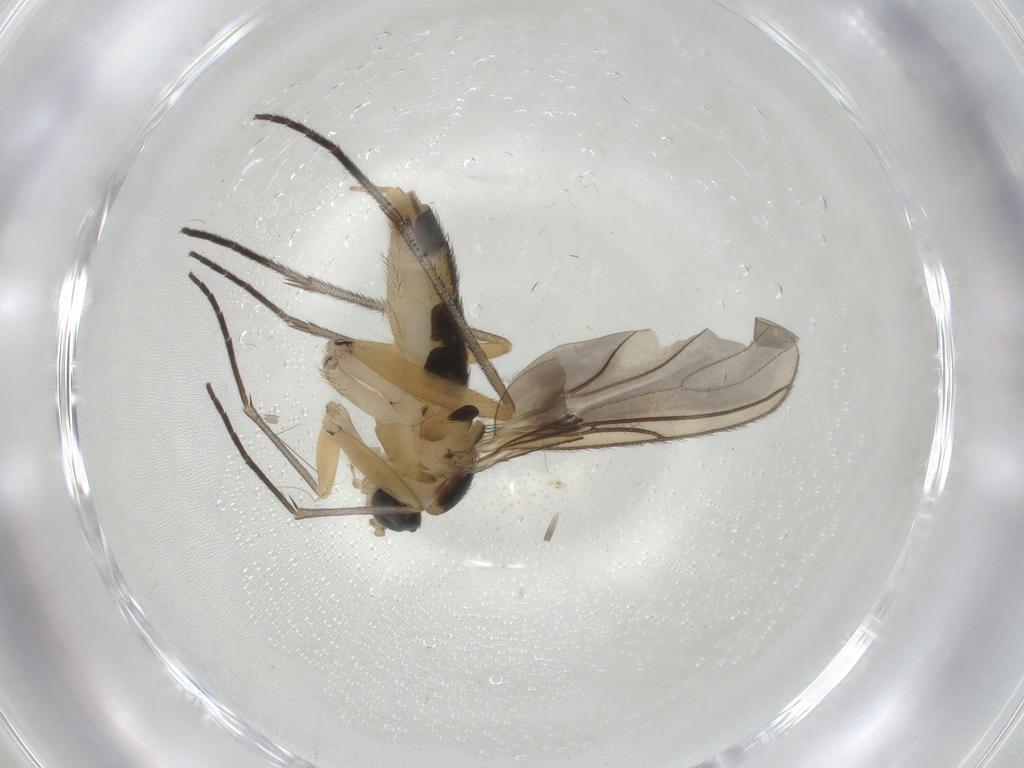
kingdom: Animalia
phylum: Arthropoda
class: Insecta
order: Diptera
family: Sciaridae
